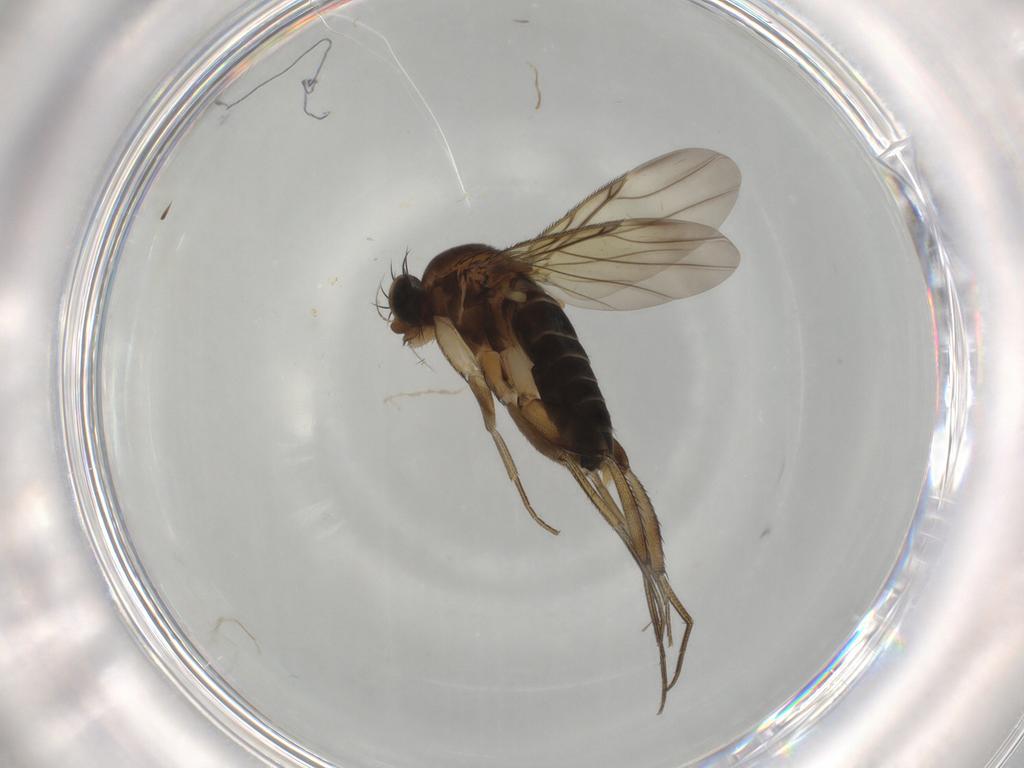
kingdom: Animalia
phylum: Arthropoda
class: Insecta
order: Diptera
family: Phoridae
